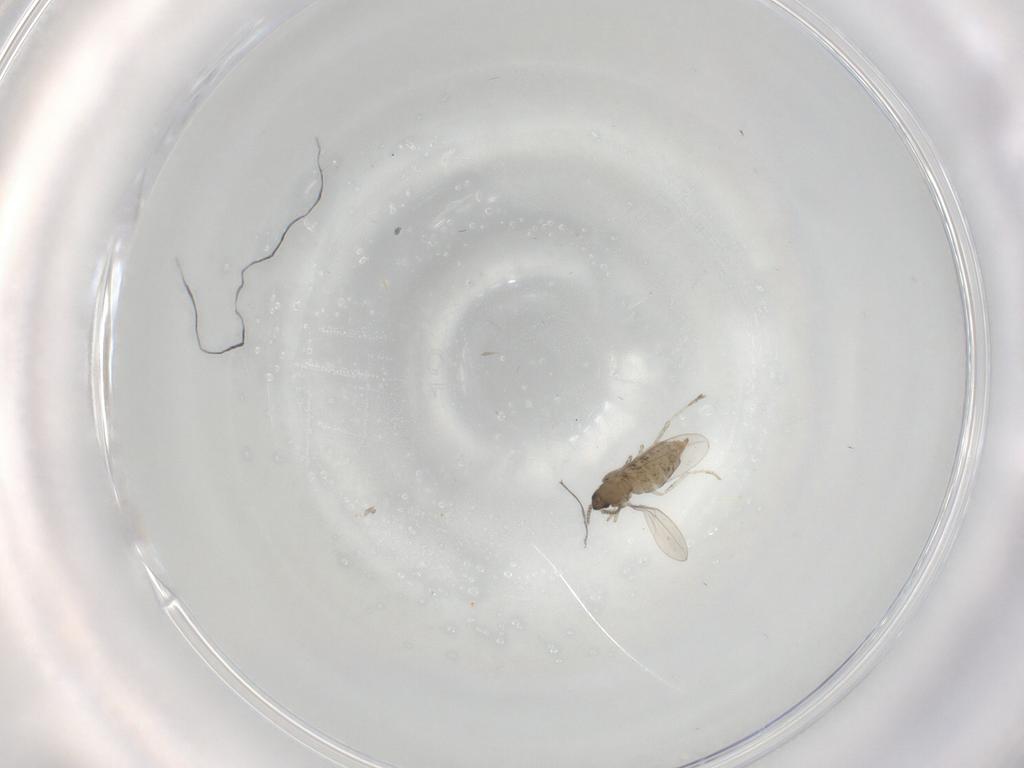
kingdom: Animalia
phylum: Arthropoda
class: Insecta
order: Diptera
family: Cecidomyiidae
